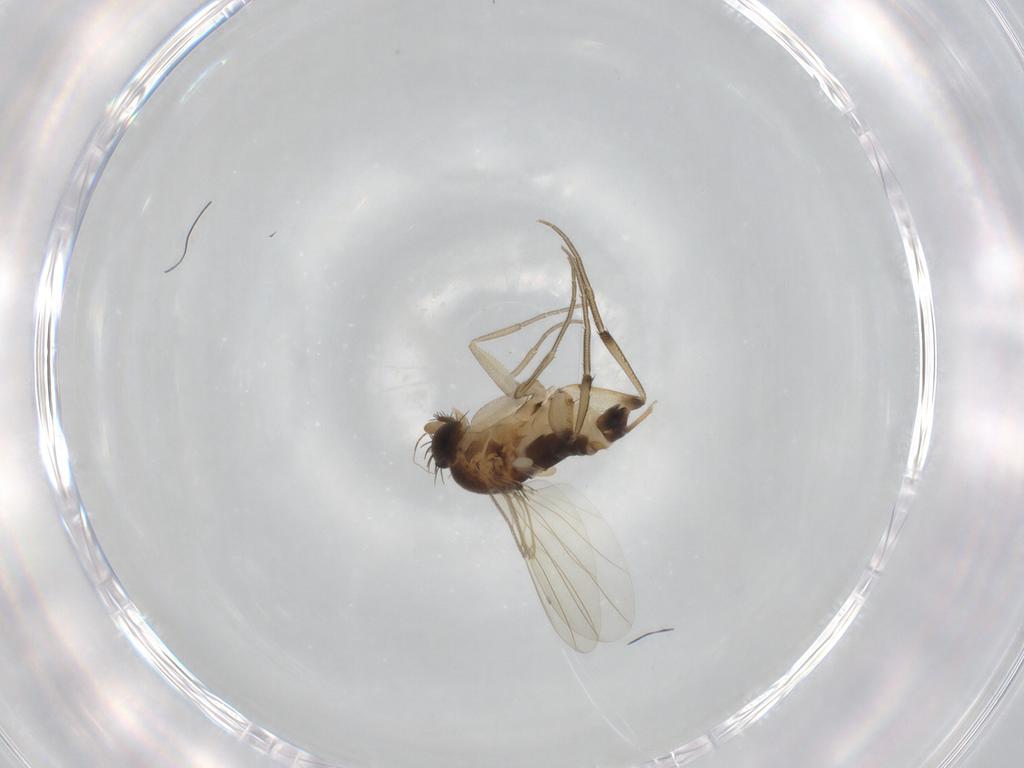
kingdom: Animalia
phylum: Arthropoda
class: Insecta
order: Diptera
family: Phoridae
